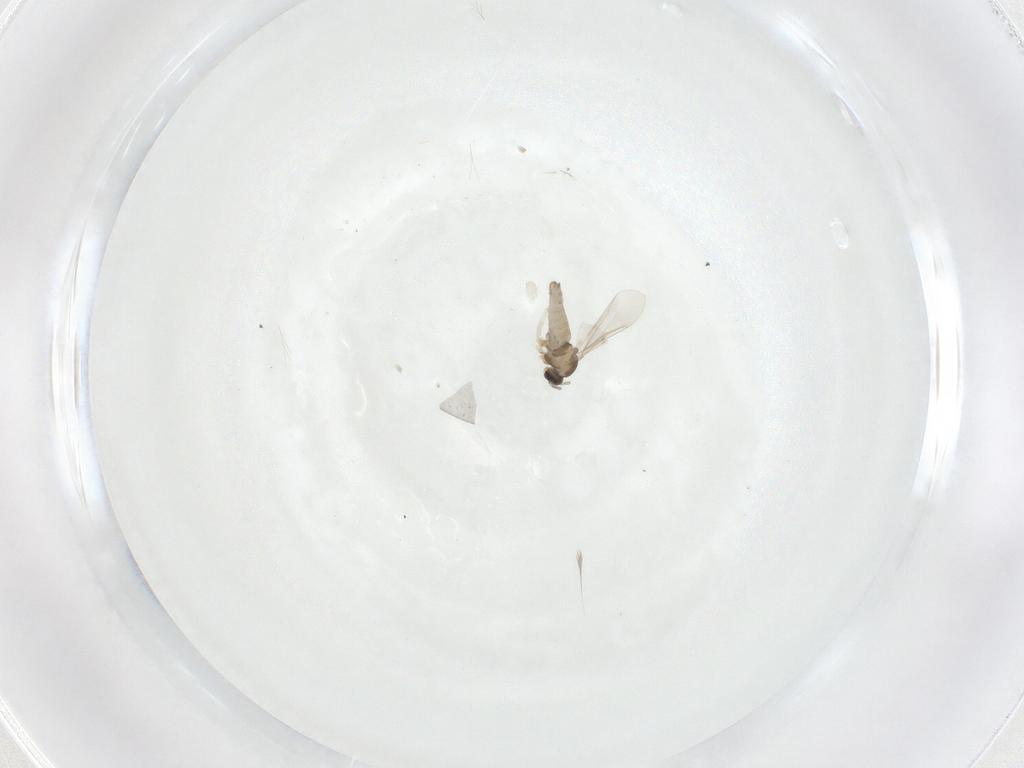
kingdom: Animalia
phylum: Arthropoda
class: Insecta
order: Diptera
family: Cecidomyiidae
